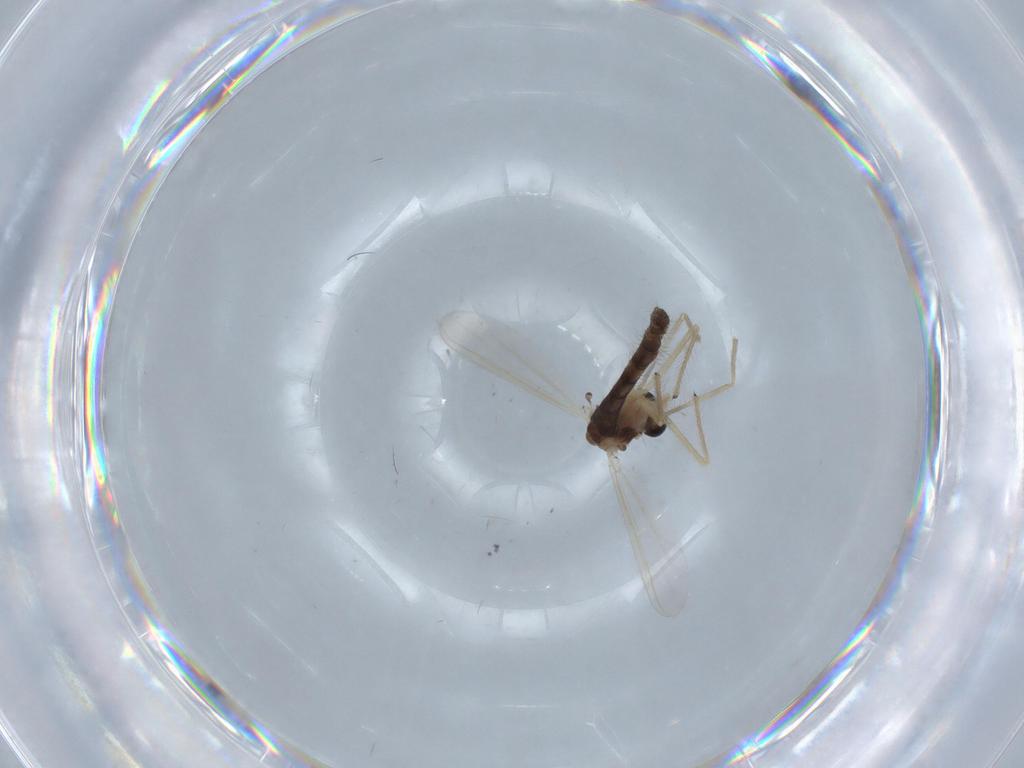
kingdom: Animalia
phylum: Arthropoda
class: Insecta
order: Diptera
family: Chironomidae
